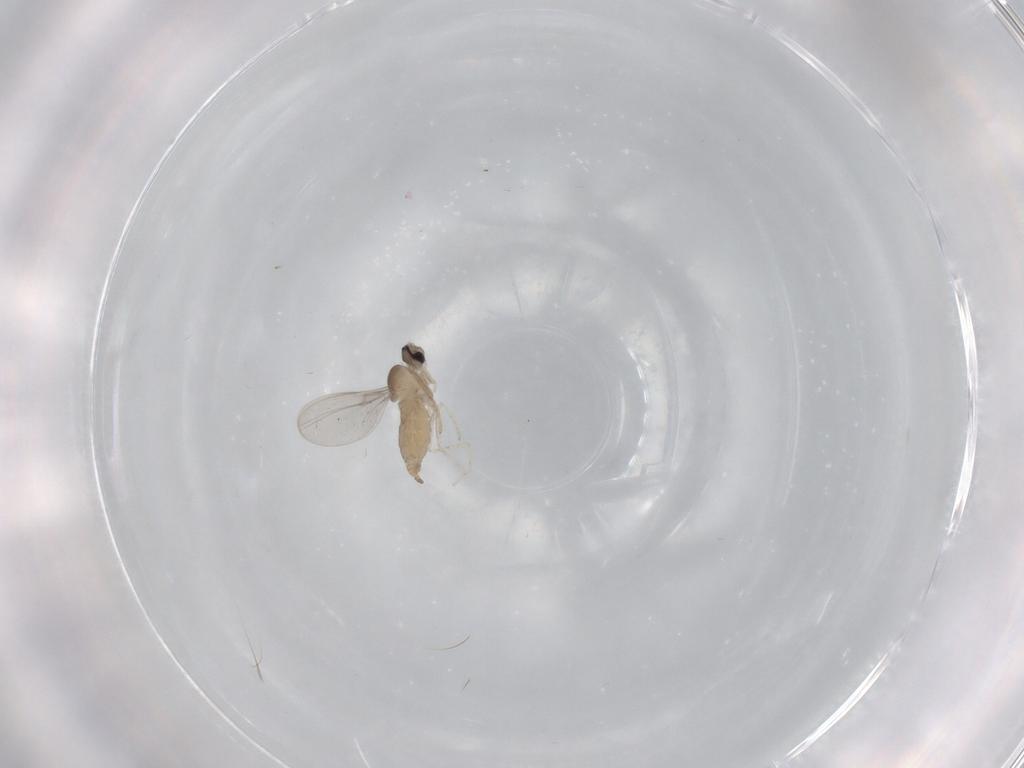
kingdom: Animalia
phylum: Arthropoda
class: Insecta
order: Diptera
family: Cecidomyiidae
